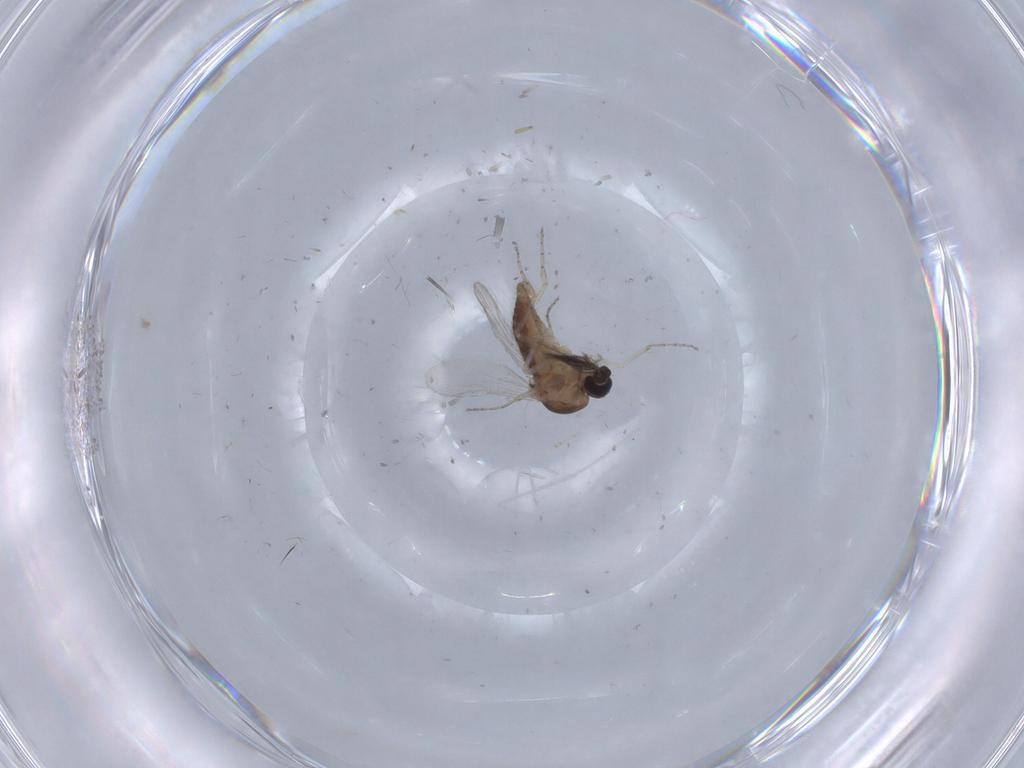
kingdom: Animalia
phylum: Arthropoda
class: Insecta
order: Diptera
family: Ceratopogonidae
